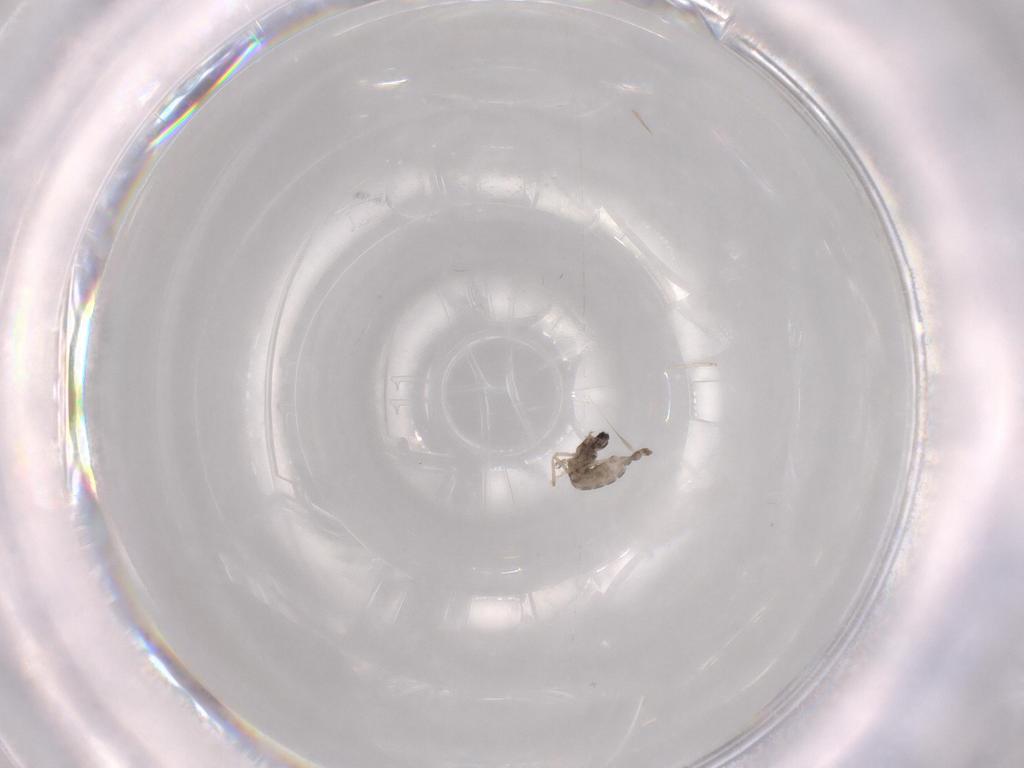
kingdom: Animalia
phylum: Arthropoda
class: Insecta
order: Diptera
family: Cecidomyiidae
